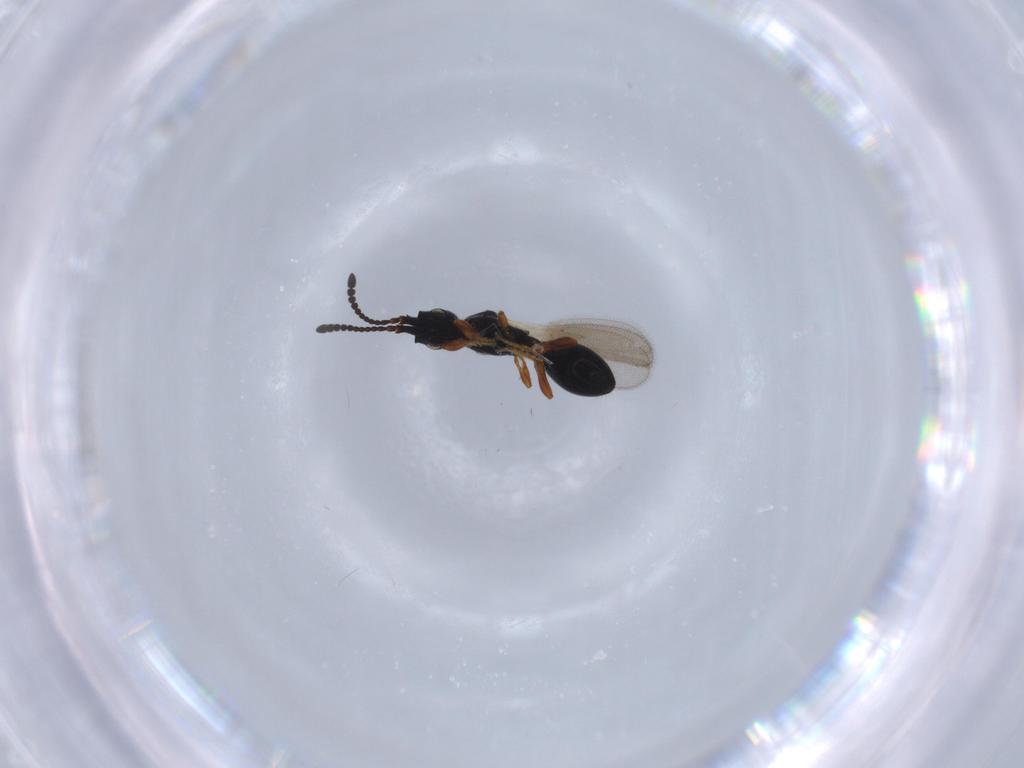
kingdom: Animalia
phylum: Arthropoda
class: Insecta
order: Hymenoptera
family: Diapriidae
